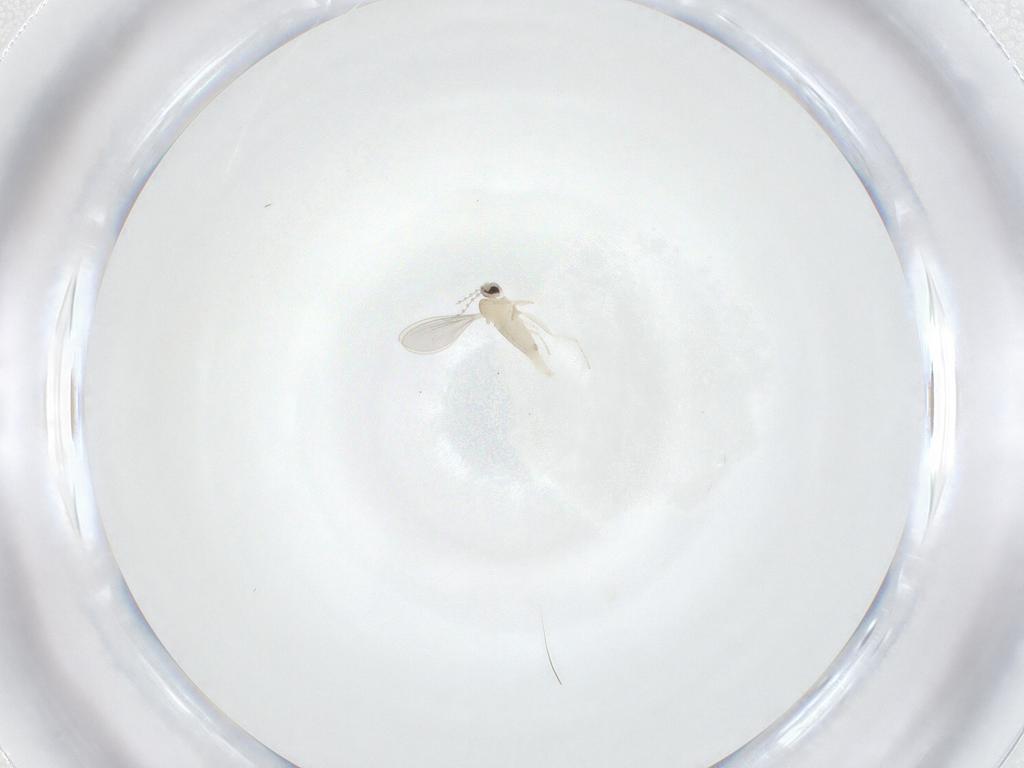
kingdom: Animalia
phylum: Arthropoda
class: Insecta
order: Diptera
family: Cecidomyiidae
